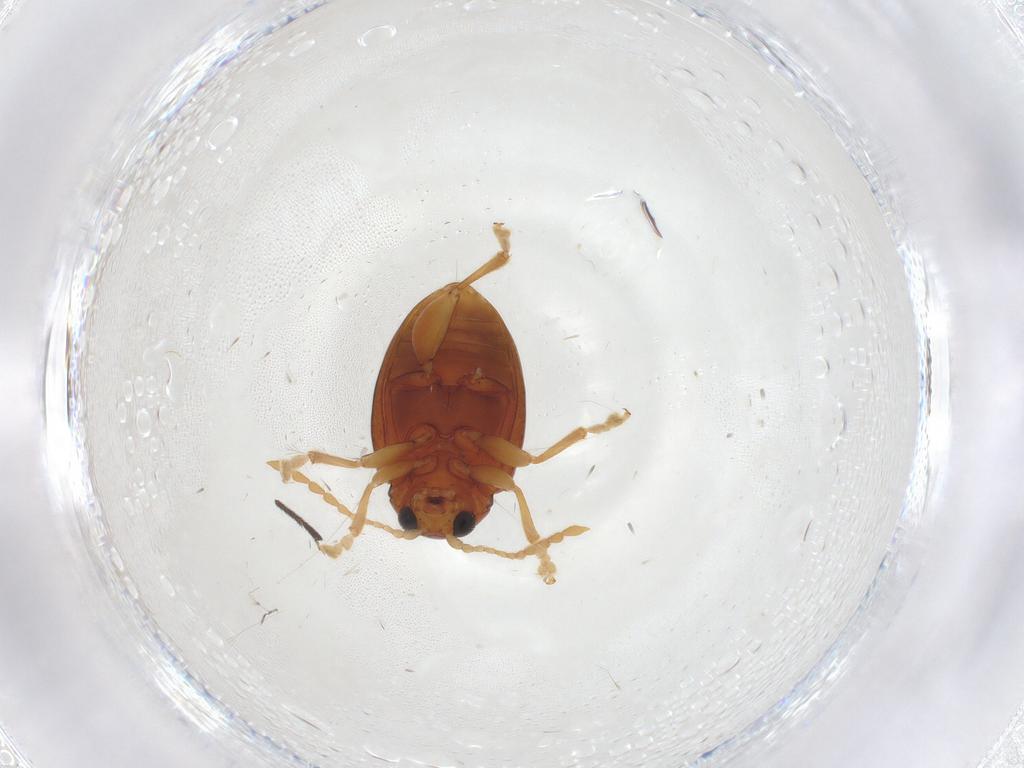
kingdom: Animalia
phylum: Arthropoda
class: Insecta
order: Coleoptera
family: Chrysomelidae
